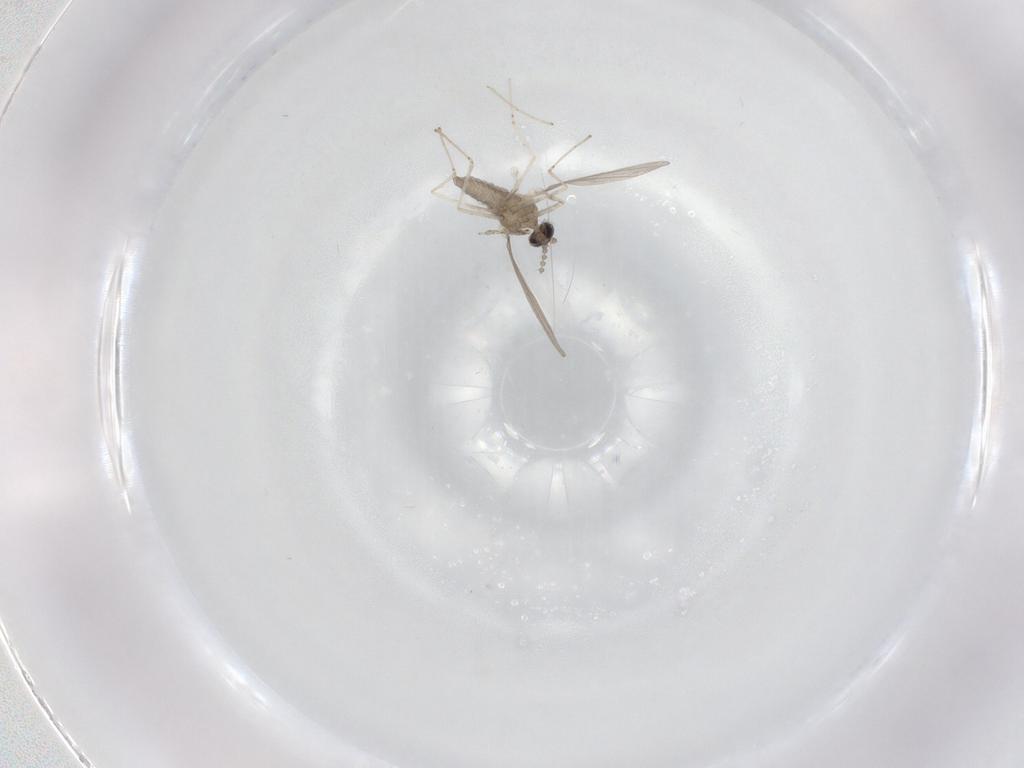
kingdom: Animalia
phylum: Arthropoda
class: Insecta
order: Diptera
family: Cecidomyiidae
